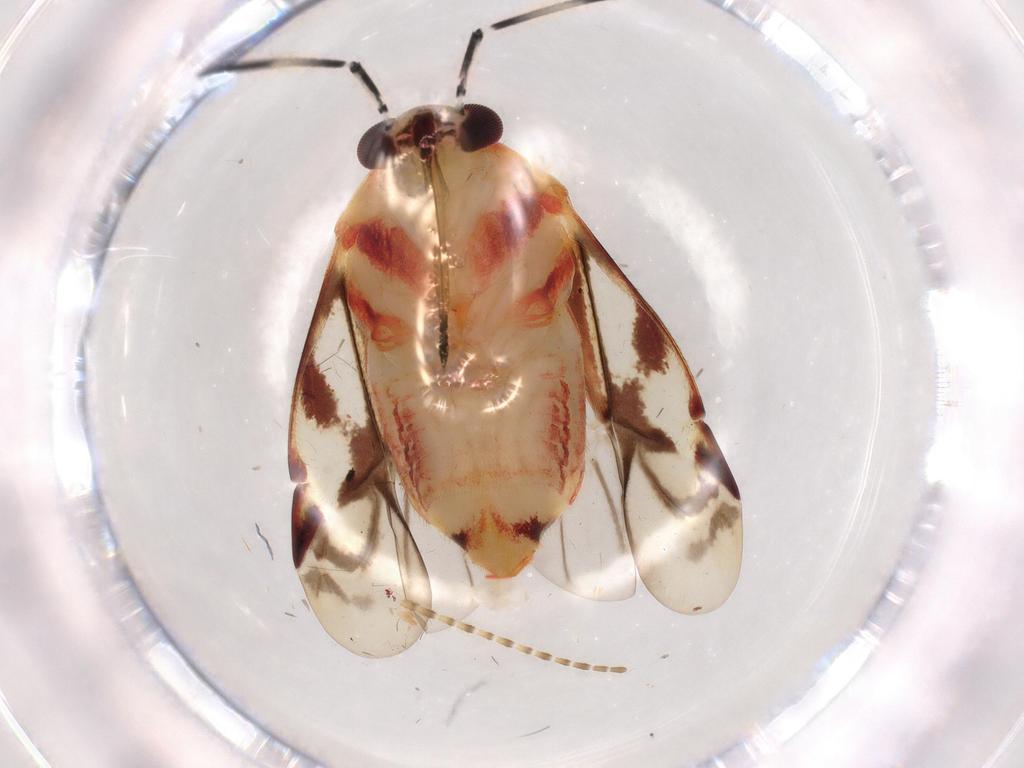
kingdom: Animalia
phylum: Arthropoda
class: Insecta
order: Hemiptera
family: Miridae
